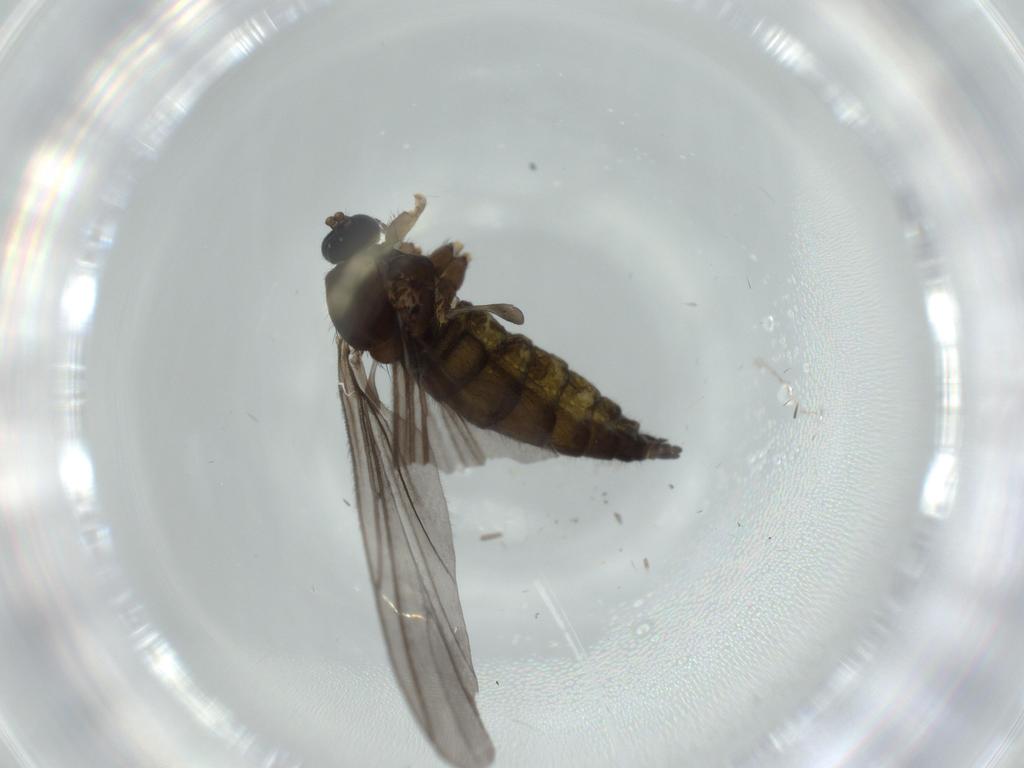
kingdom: Animalia
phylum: Arthropoda
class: Insecta
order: Diptera
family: Sciaridae
